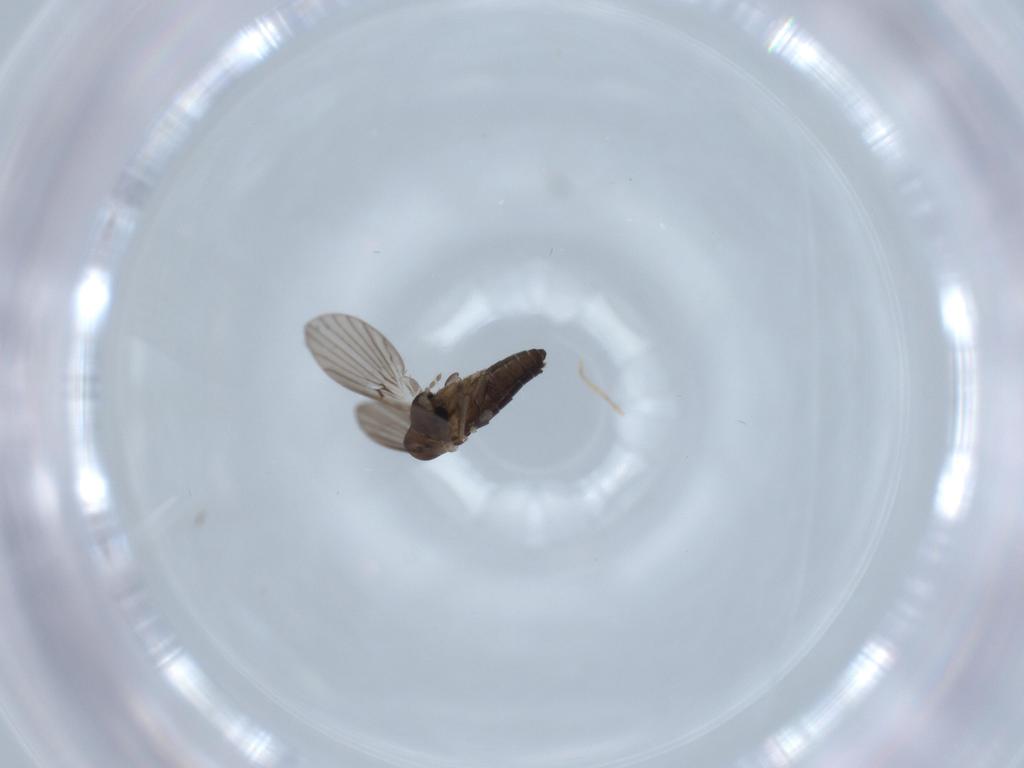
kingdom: Animalia
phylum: Arthropoda
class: Insecta
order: Diptera
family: Psychodidae
